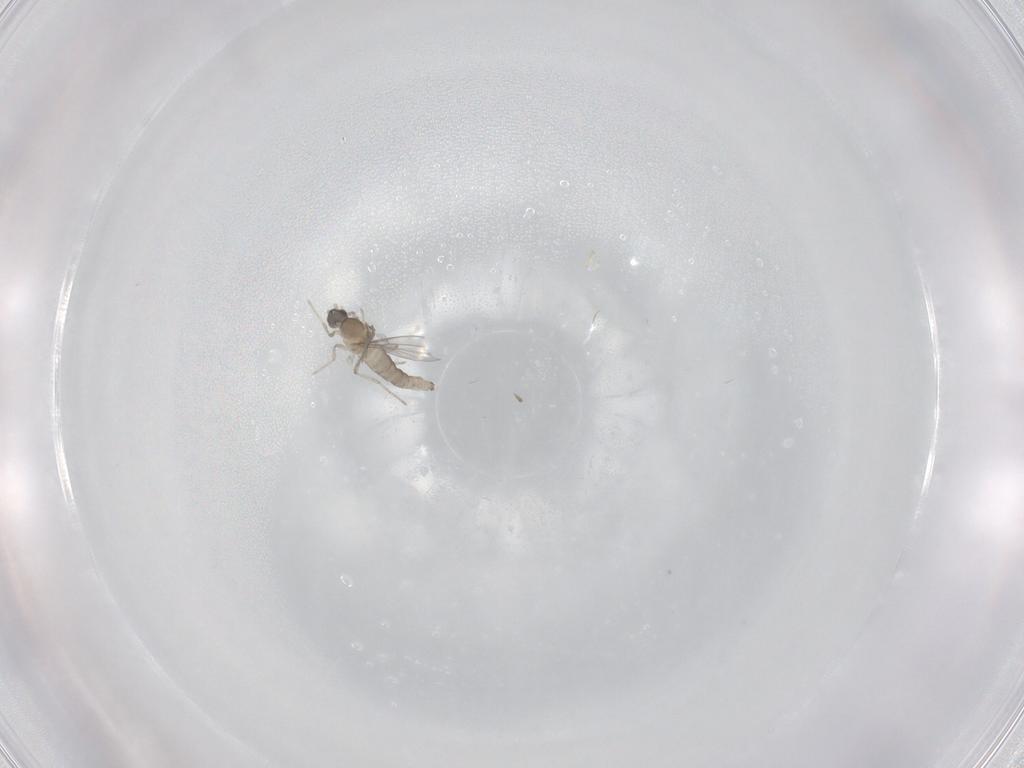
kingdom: Animalia
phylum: Arthropoda
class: Insecta
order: Diptera
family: Cecidomyiidae
